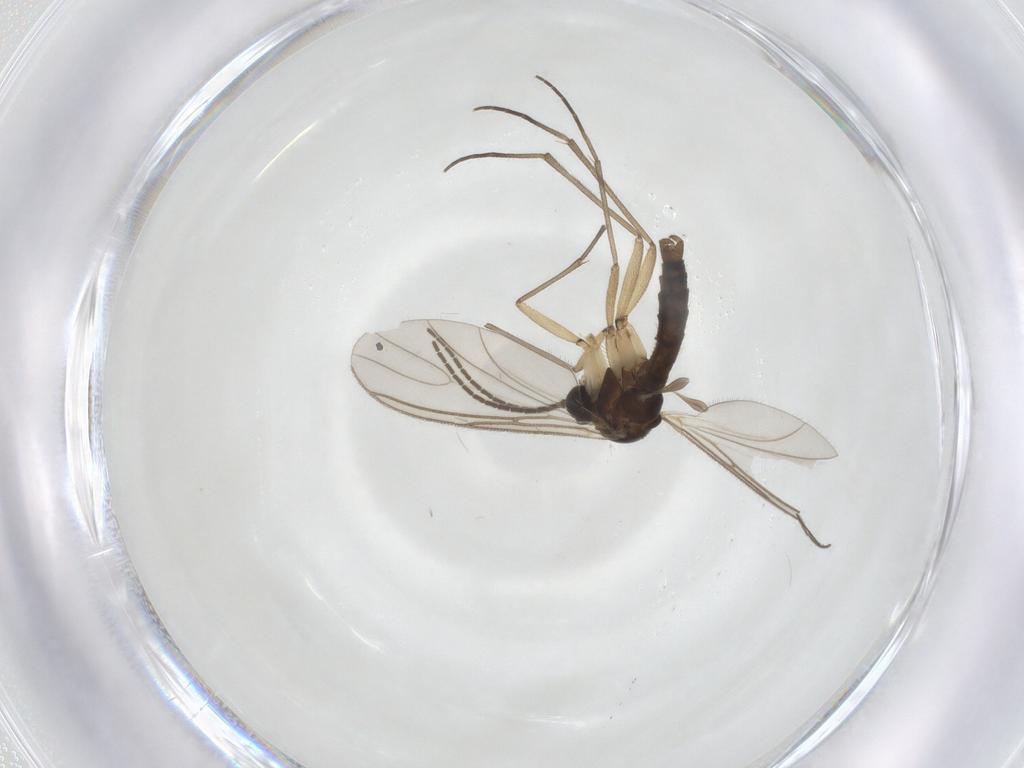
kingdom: Animalia
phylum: Arthropoda
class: Insecta
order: Diptera
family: Sciaridae
